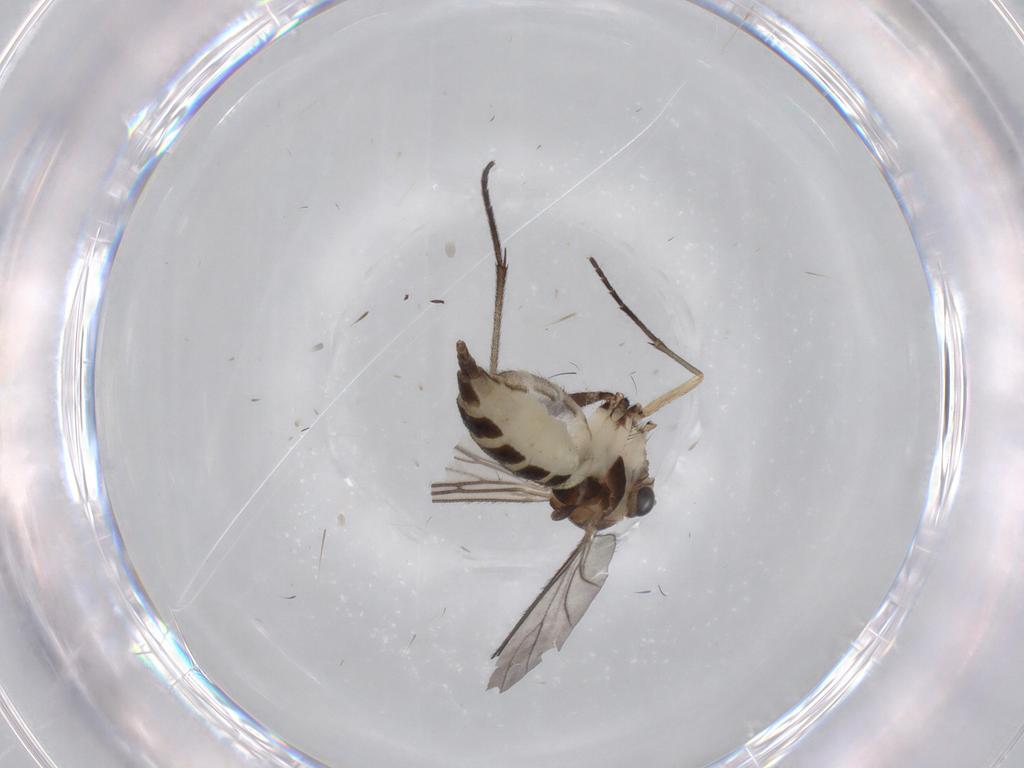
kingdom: Animalia
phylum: Arthropoda
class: Insecta
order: Diptera
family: Sciaridae
